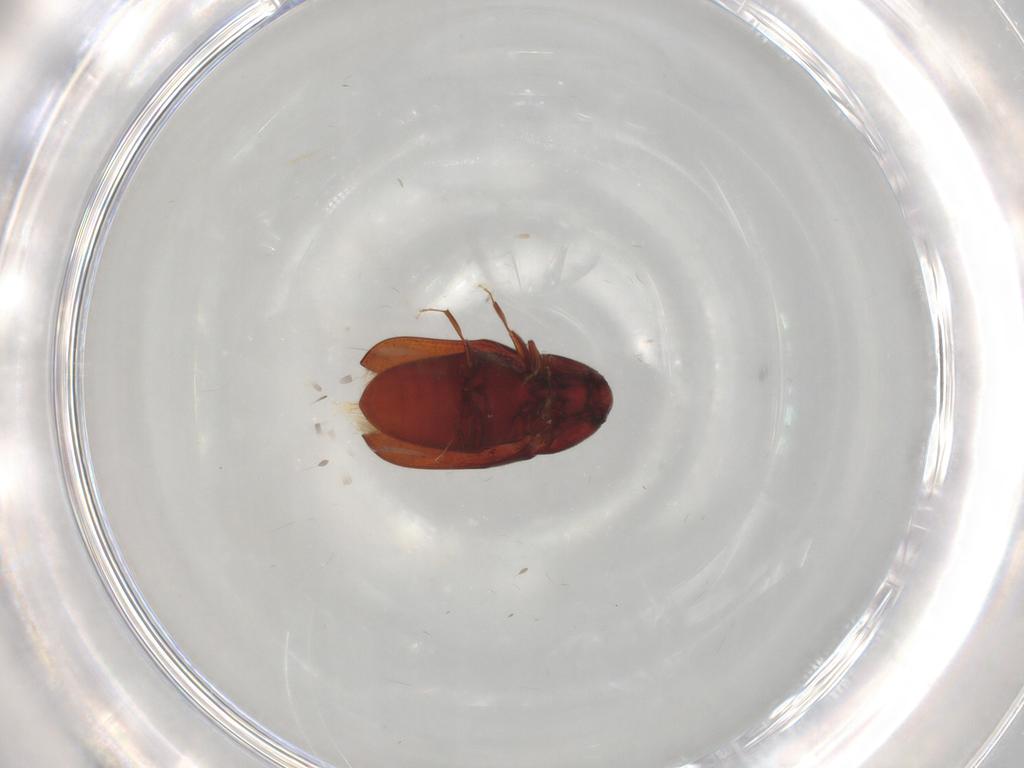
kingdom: Animalia
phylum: Arthropoda
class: Insecta
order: Coleoptera
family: Throscidae
